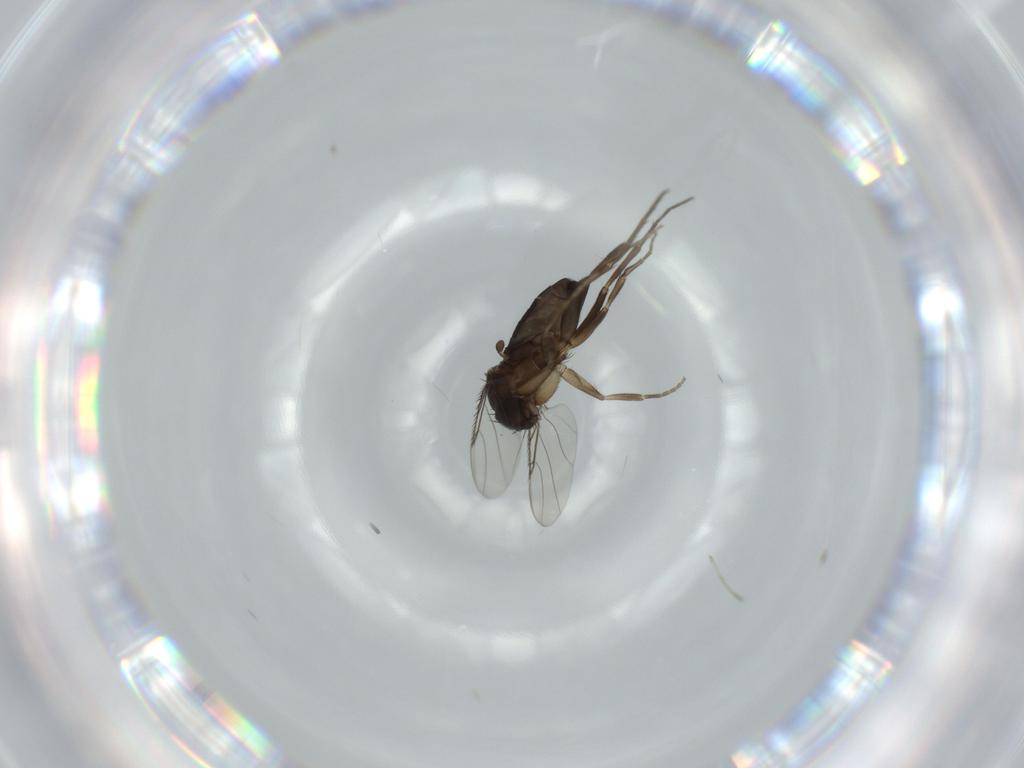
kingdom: Animalia
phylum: Arthropoda
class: Insecta
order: Diptera
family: Phoridae
